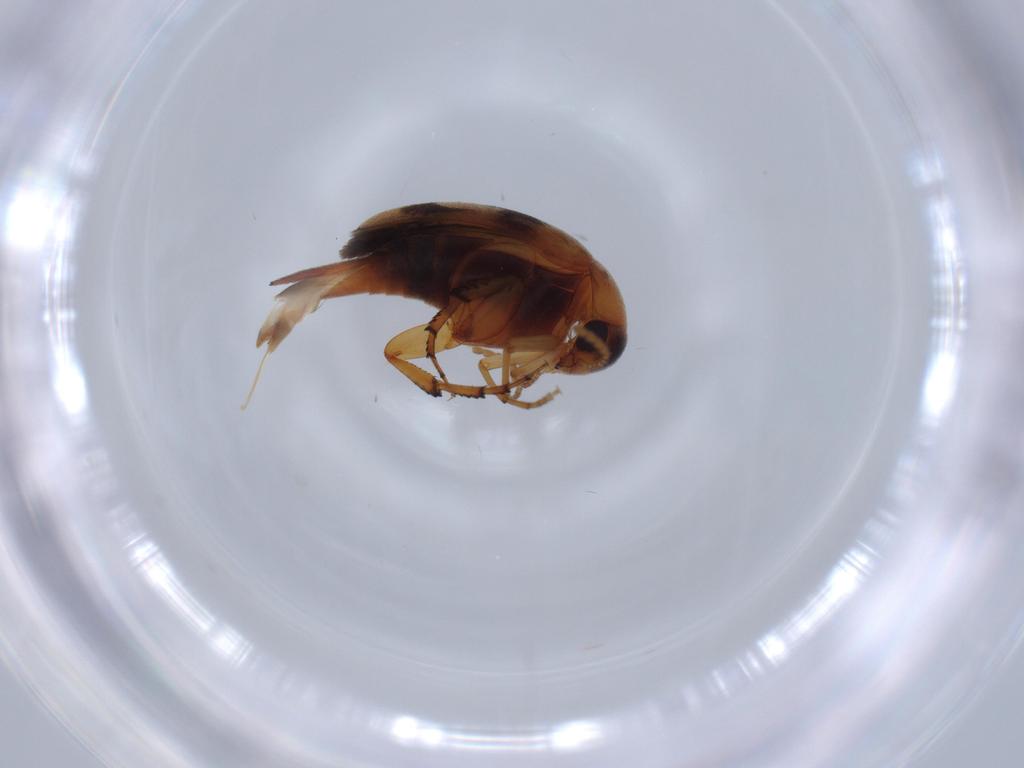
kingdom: Animalia
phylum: Arthropoda
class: Insecta
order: Coleoptera
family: Mordellidae
